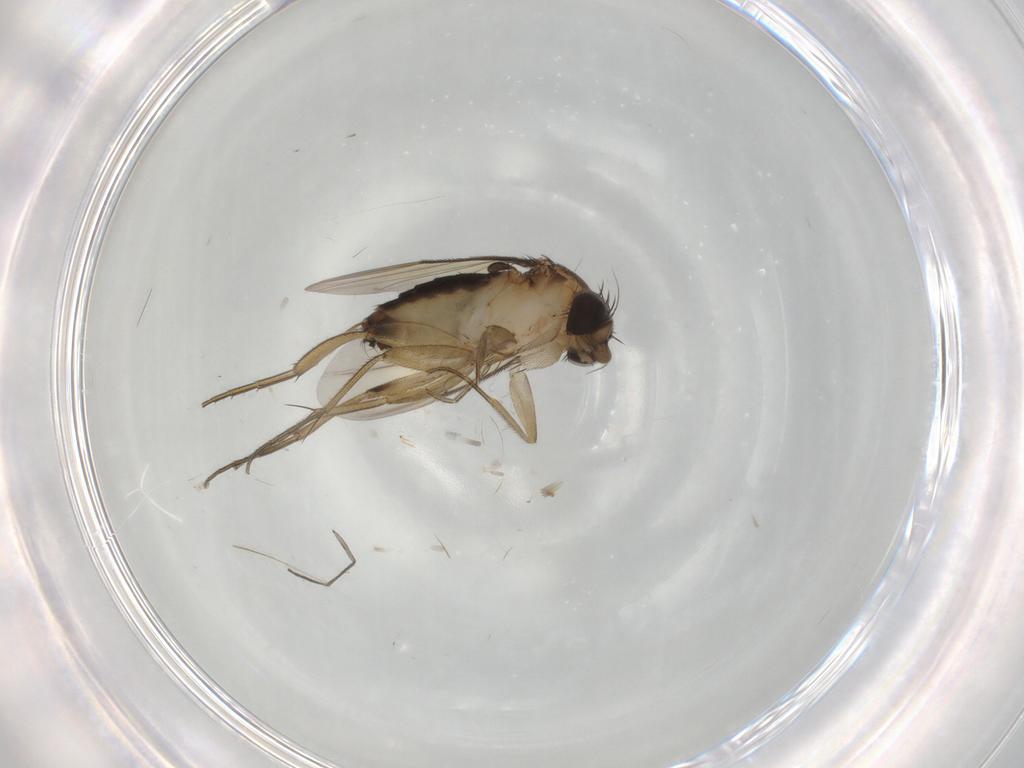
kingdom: Animalia
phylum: Arthropoda
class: Insecta
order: Diptera
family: Phoridae
